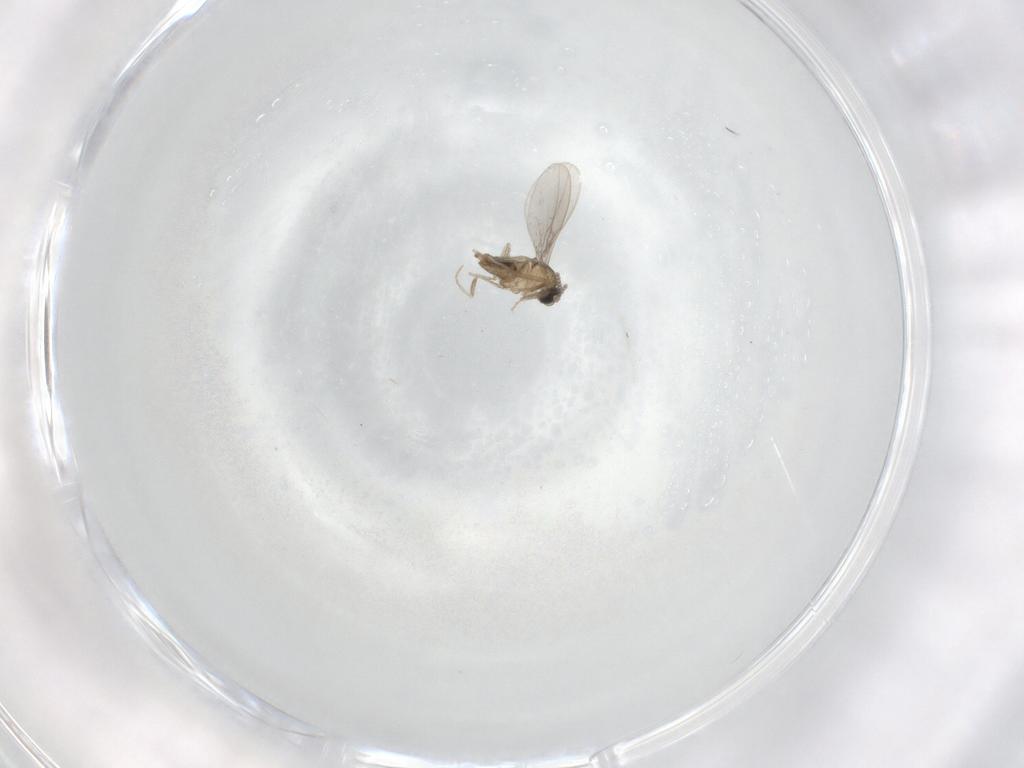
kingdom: Animalia
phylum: Arthropoda
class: Insecta
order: Diptera
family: Cecidomyiidae
